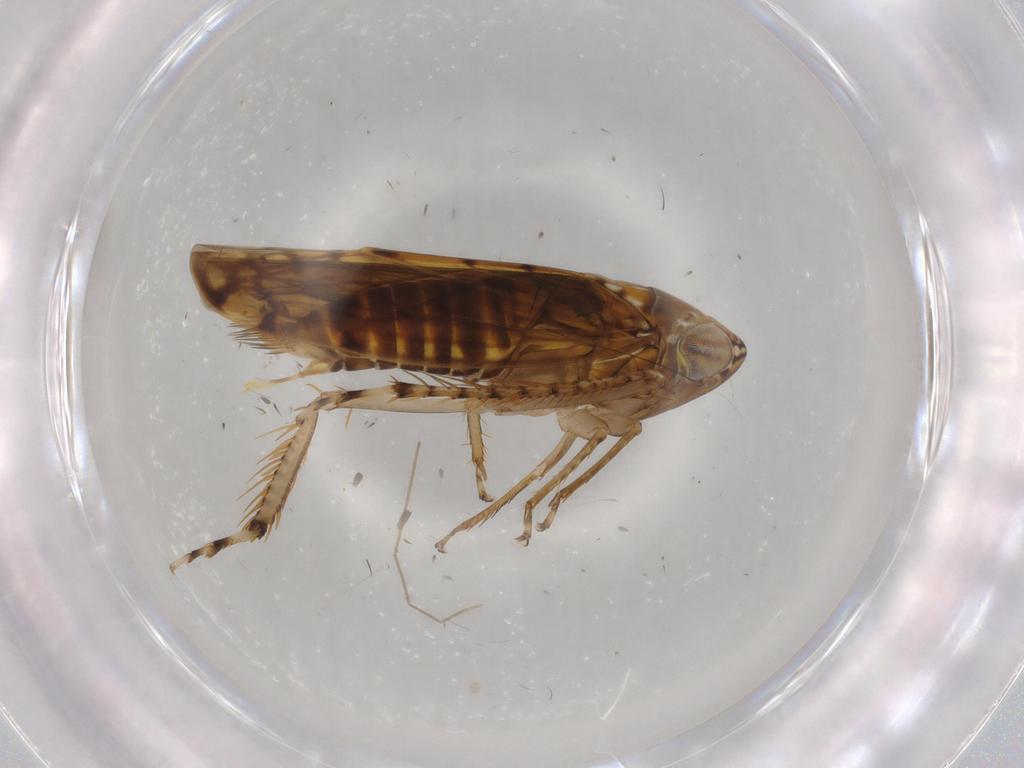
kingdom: Animalia
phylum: Arthropoda
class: Insecta
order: Hemiptera
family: Cicadellidae
